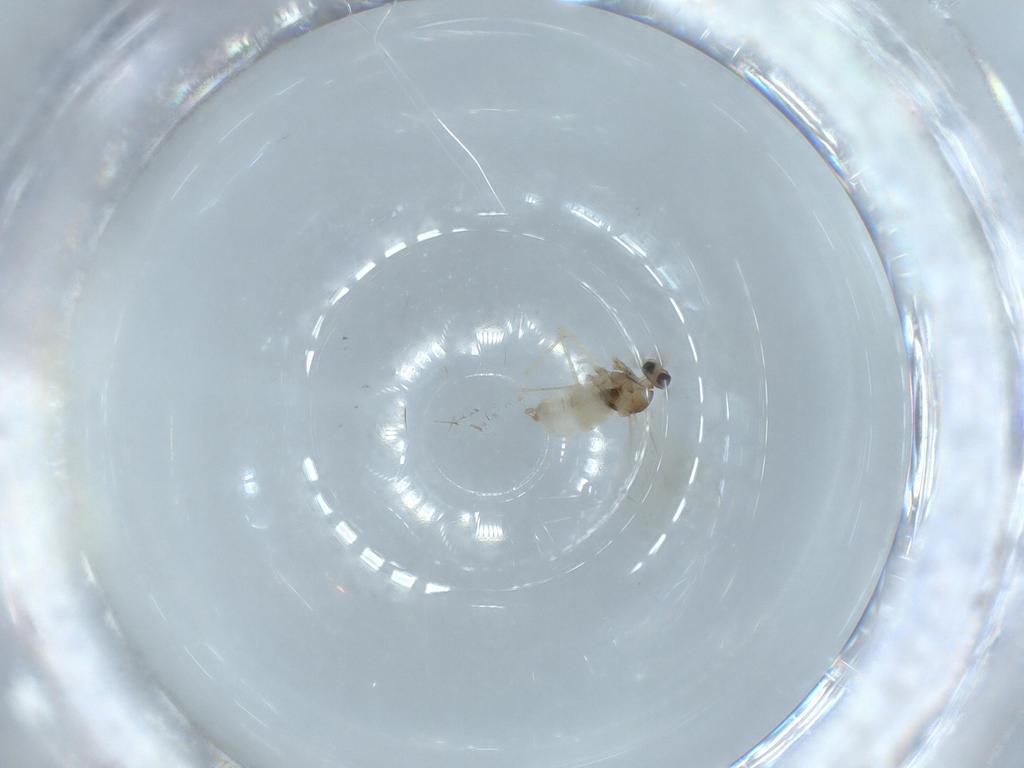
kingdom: Animalia
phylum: Arthropoda
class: Insecta
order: Diptera
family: Cecidomyiidae
